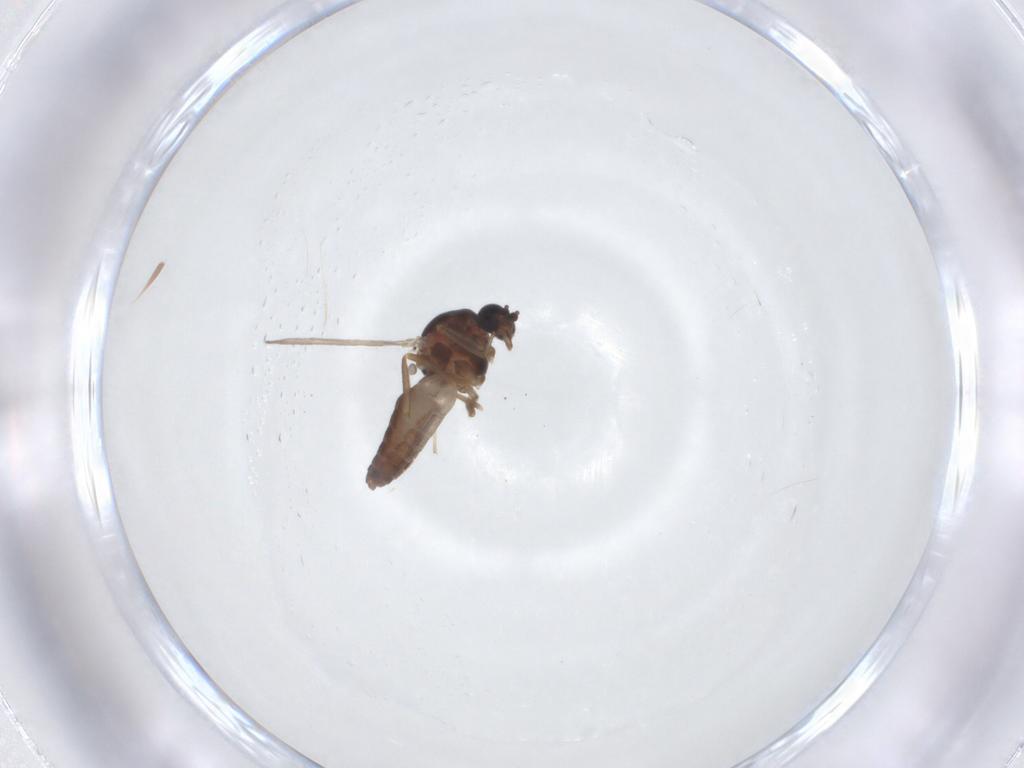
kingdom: Animalia
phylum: Arthropoda
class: Insecta
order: Diptera
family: Ceratopogonidae
